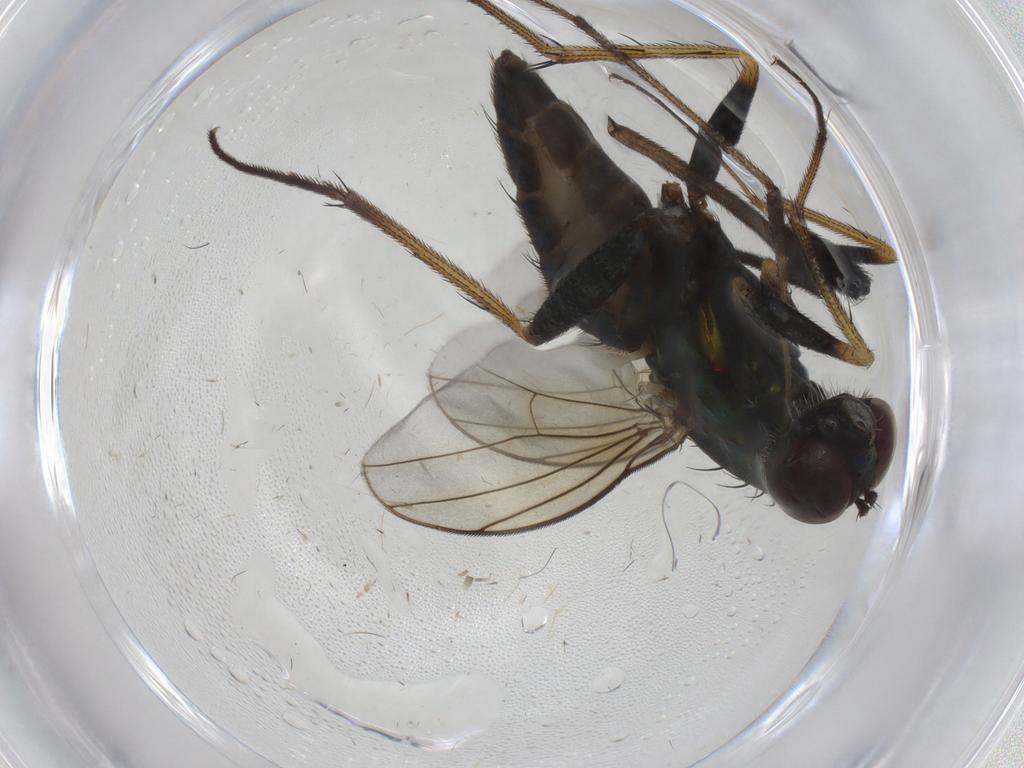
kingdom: Animalia
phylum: Arthropoda
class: Insecta
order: Diptera
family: Dolichopodidae
